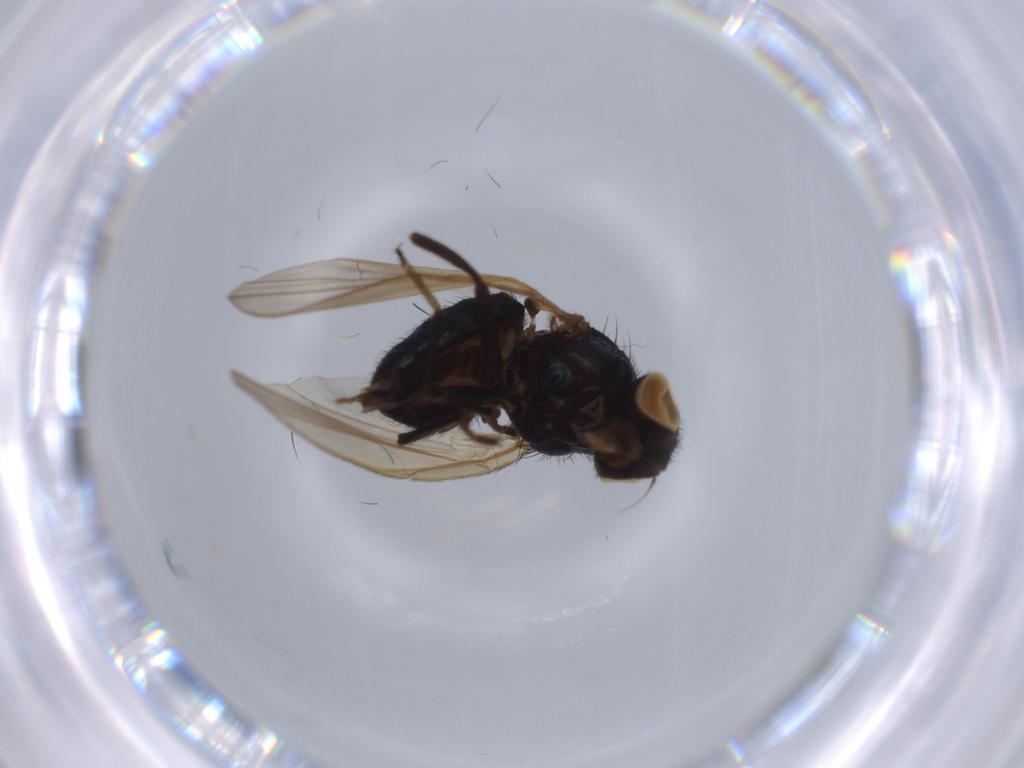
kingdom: Animalia
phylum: Arthropoda
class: Insecta
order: Diptera
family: Lonchaeidae
